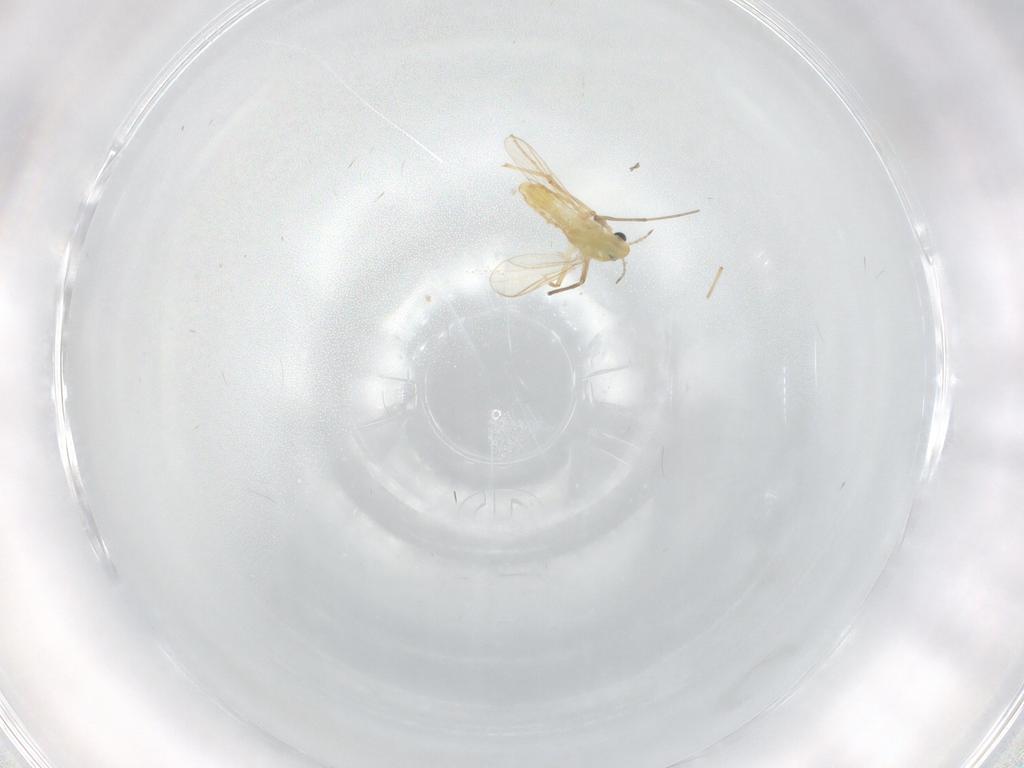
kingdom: Animalia
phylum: Arthropoda
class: Insecta
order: Diptera
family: Chironomidae
